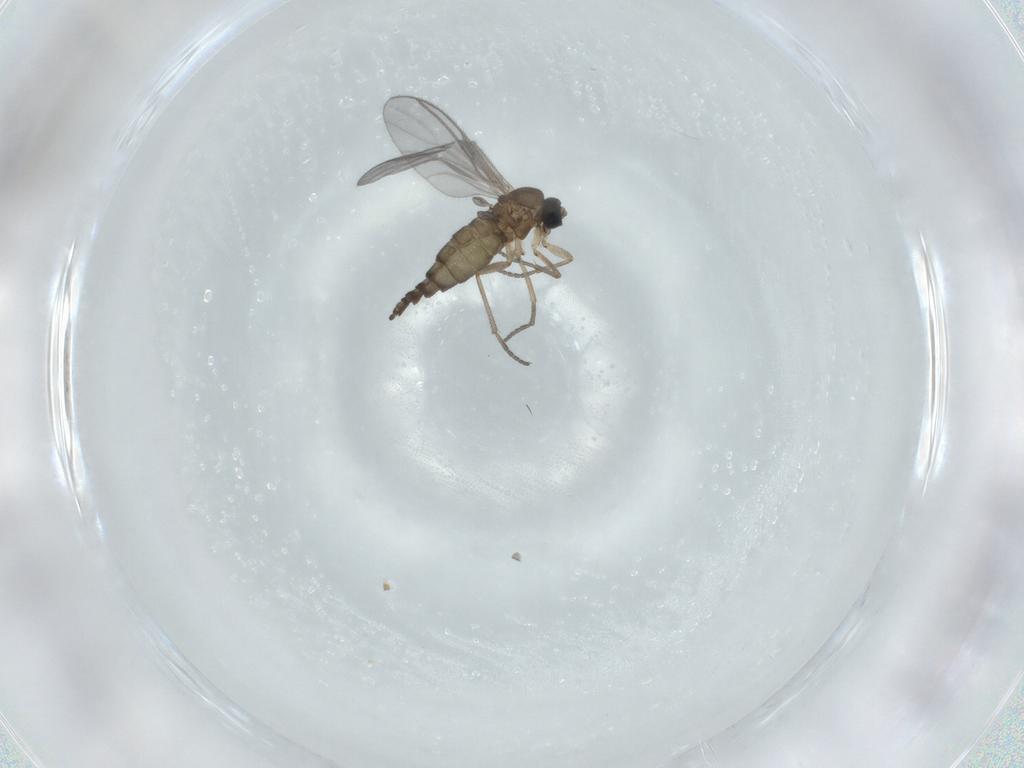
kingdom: Animalia
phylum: Arthropoda
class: Insecta
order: Diptera
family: Sciaridae
